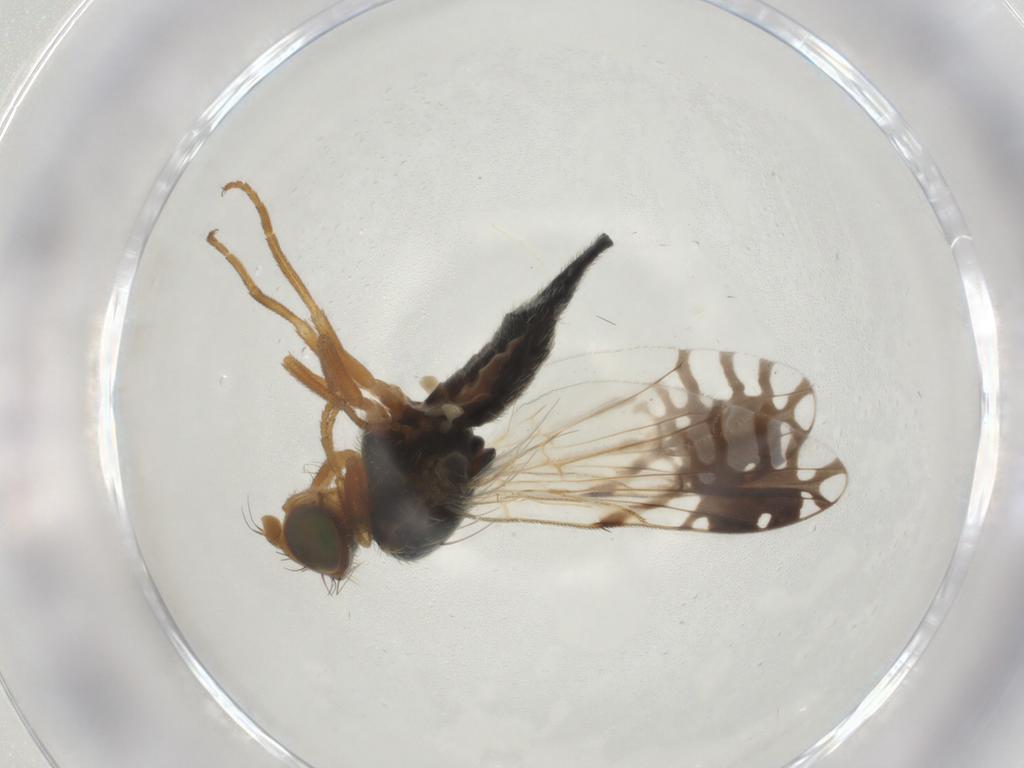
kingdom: Animalia
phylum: Arthropoda
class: Insecta
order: Diptera
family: Tephritidae
